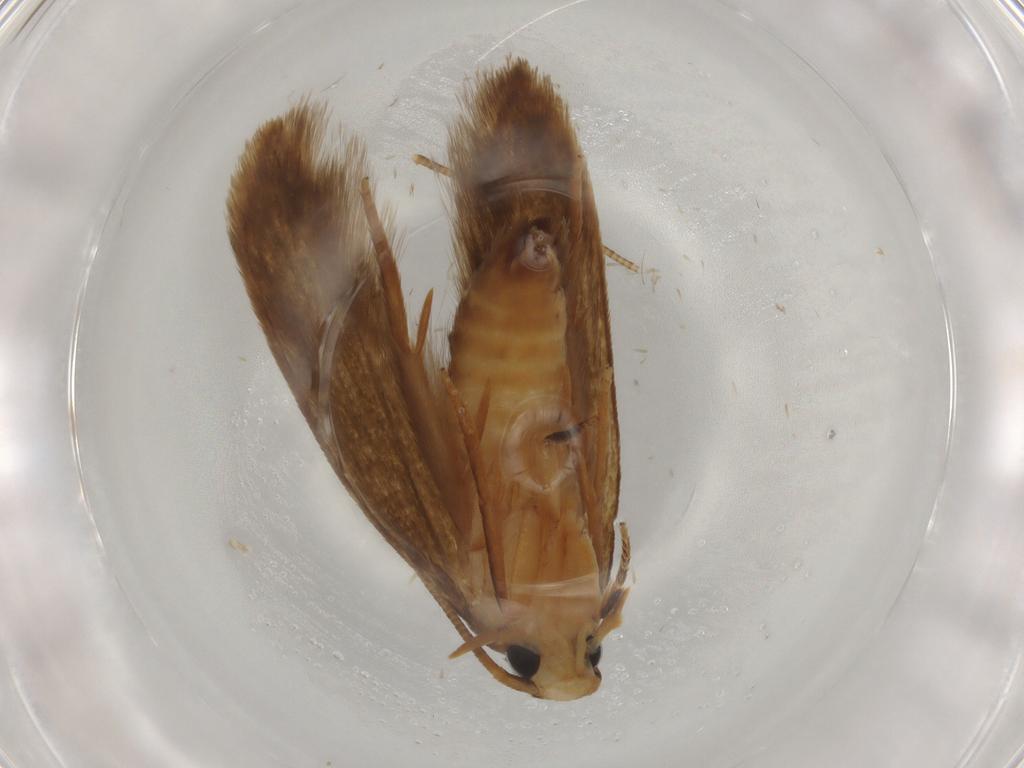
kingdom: Animalia
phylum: Arthropoda
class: Insecta
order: Lepidoptera
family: Tineidae
